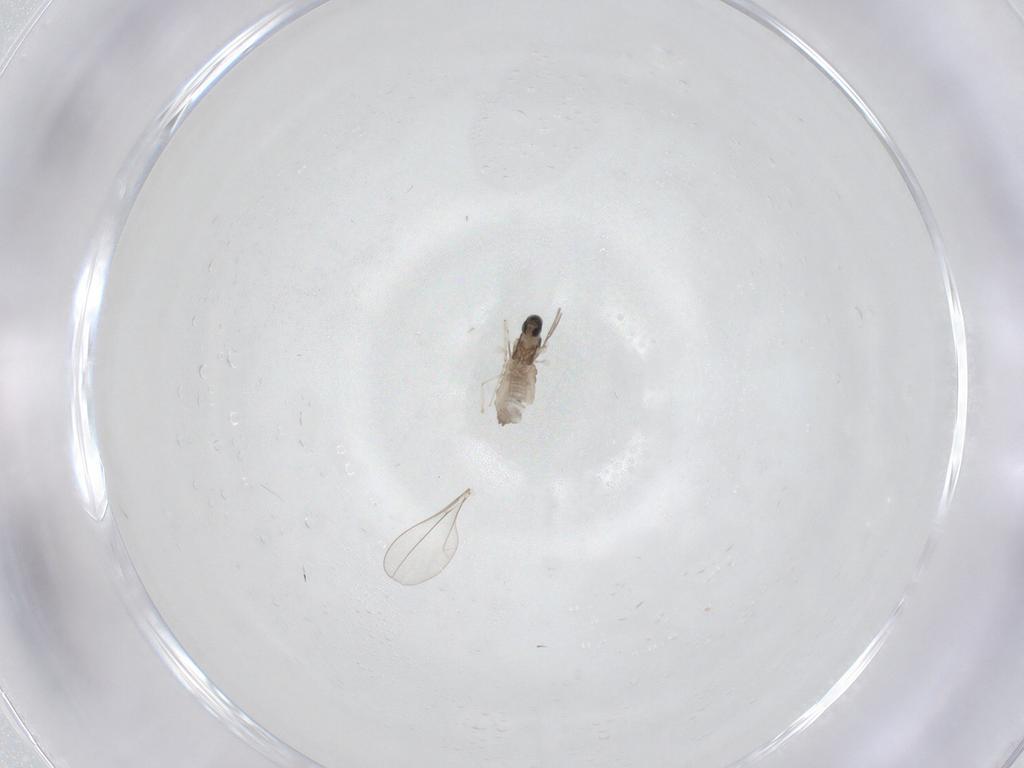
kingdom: Animalia
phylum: Arthropoda
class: Insecta
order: Diptera
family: Cecidomyiidae
